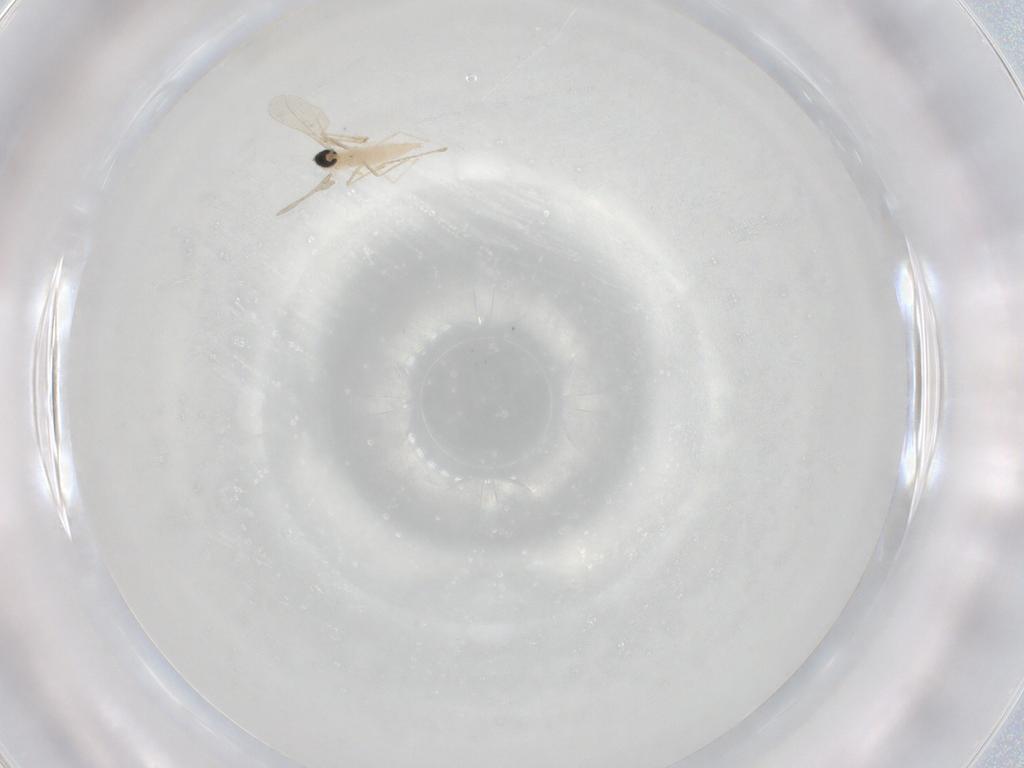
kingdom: Animalia
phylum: Arthropoda
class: Insecta
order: Diptera
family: Cecidomyiidae
